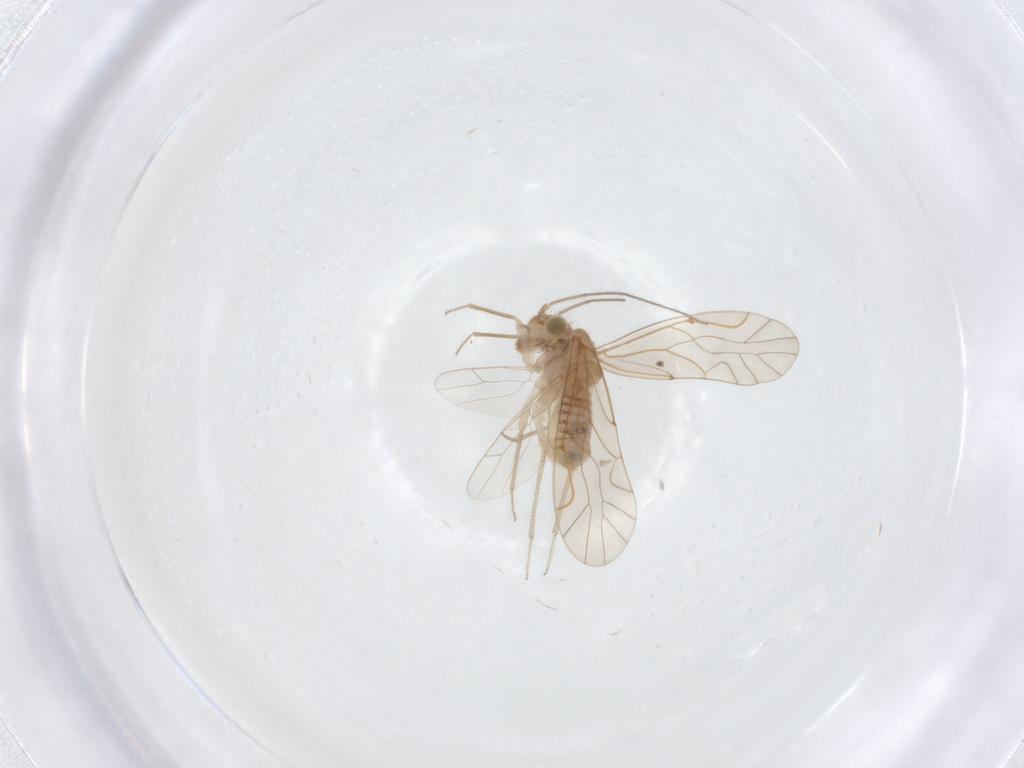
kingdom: Animalia
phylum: Arthropoda
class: Insecta
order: Psocodea
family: Lachesillidae
